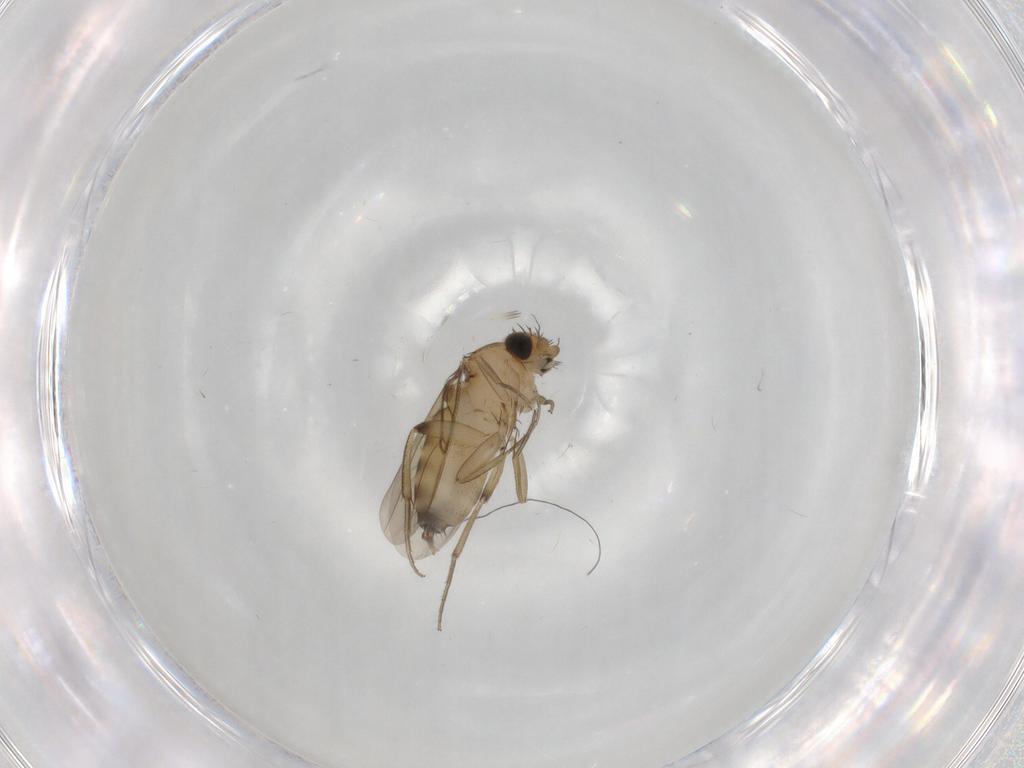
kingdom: Animalia
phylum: Arthropoda
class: Insecta
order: Diptera
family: Phoridae
